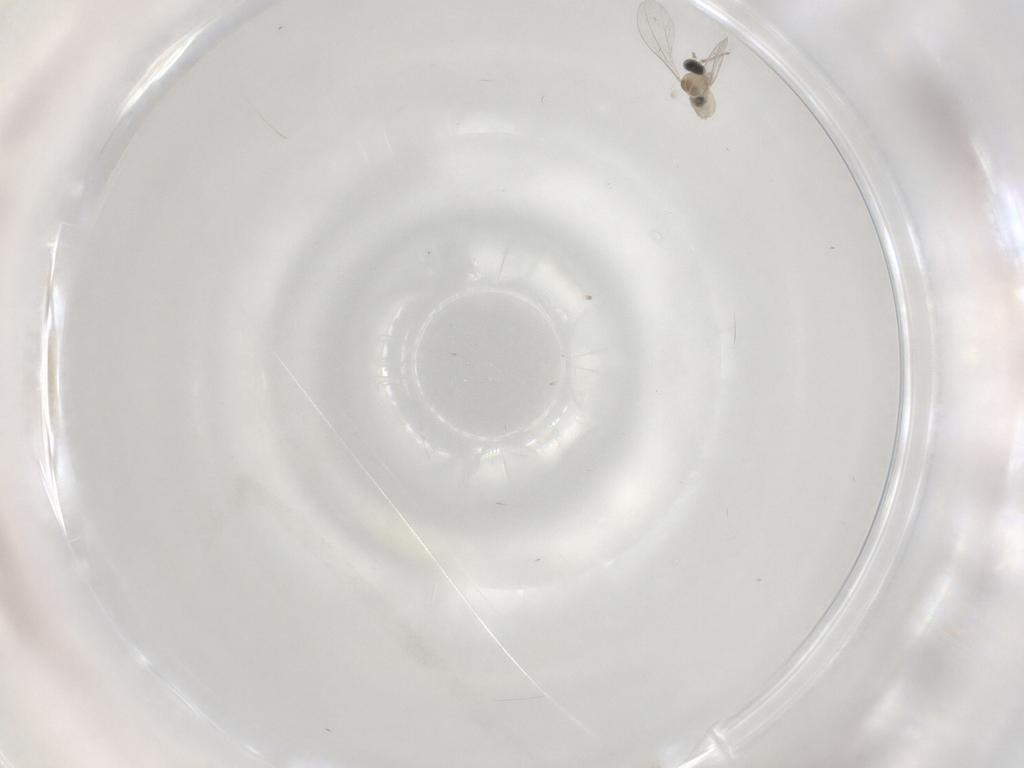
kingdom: Animalia
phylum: Arthropoda
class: Insecta
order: Diptera
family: Cecidomyiidae
